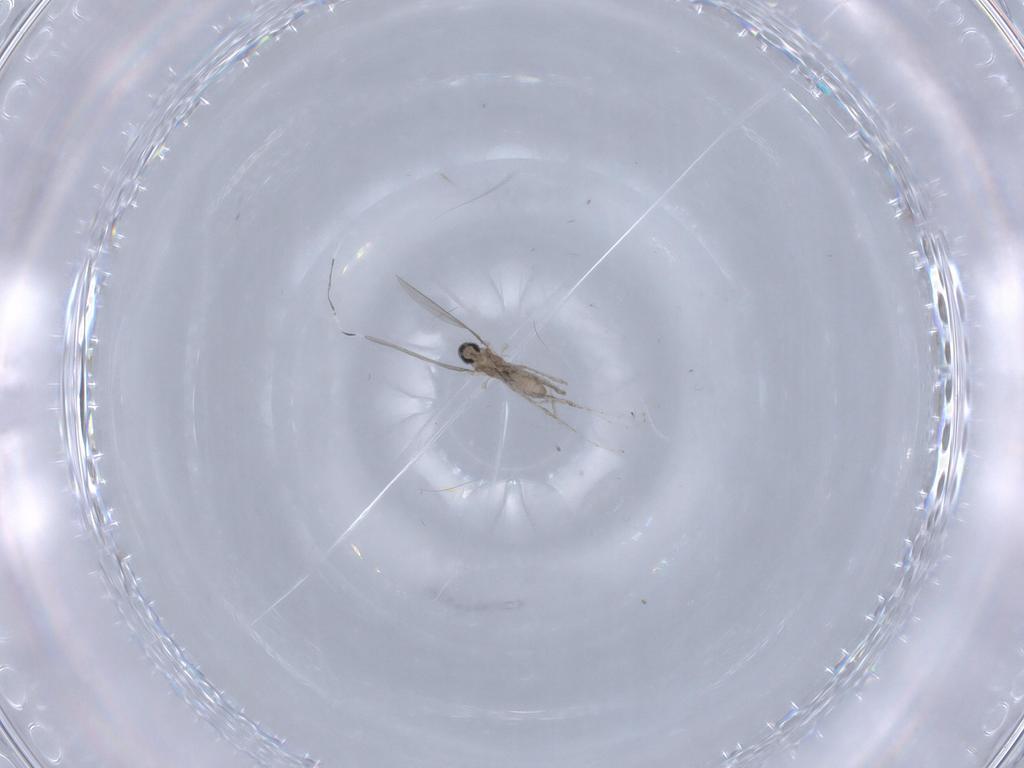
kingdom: Animalia
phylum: Arthropoda
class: Insecta
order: Diptera
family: Cecidomyiidae
